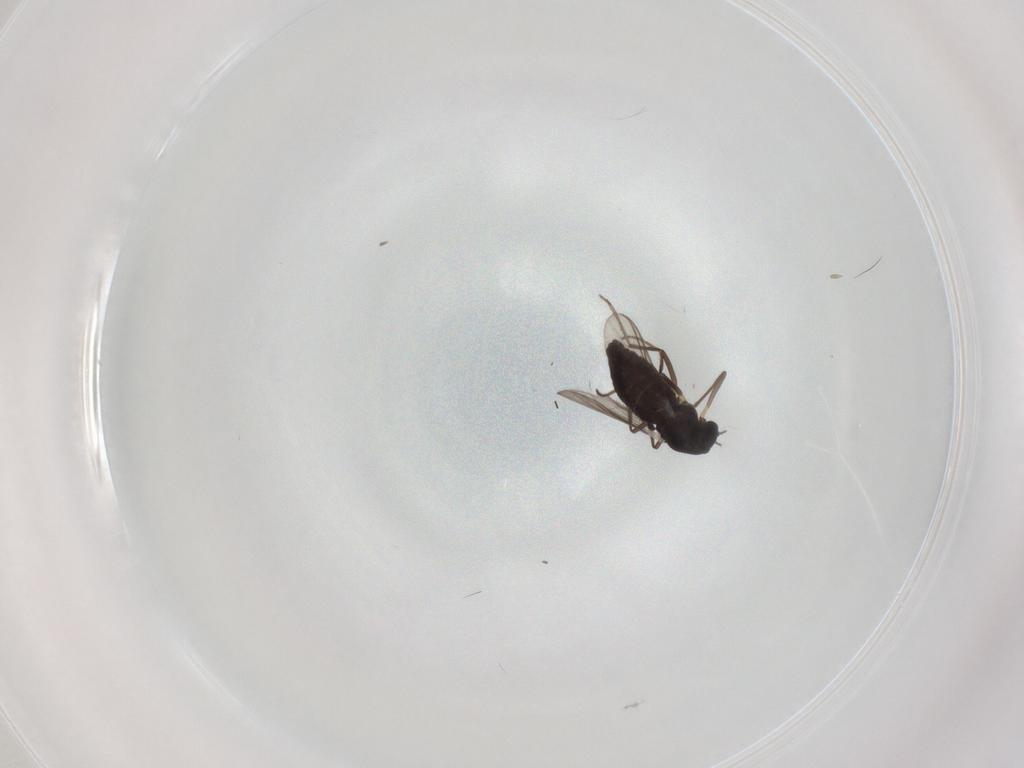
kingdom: Animalia
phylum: Arthropoda
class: Insecta
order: Diptera
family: Chironomidae
